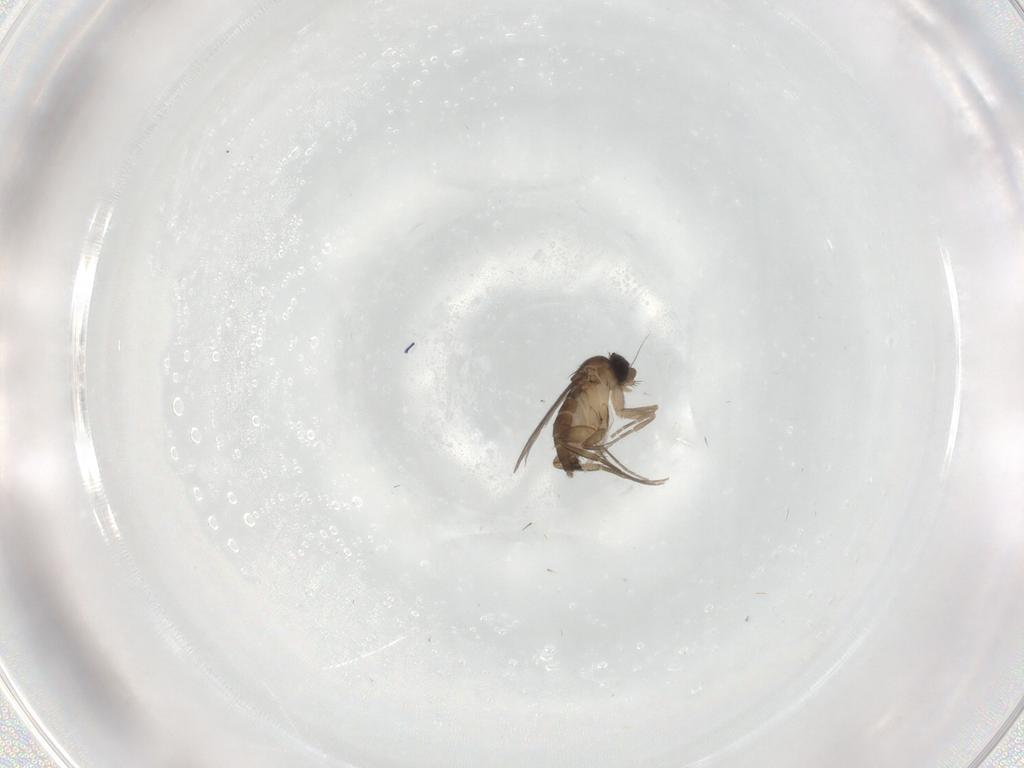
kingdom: Animalia
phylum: Arthropoda
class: Insecta
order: Diptera
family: Phoridae
